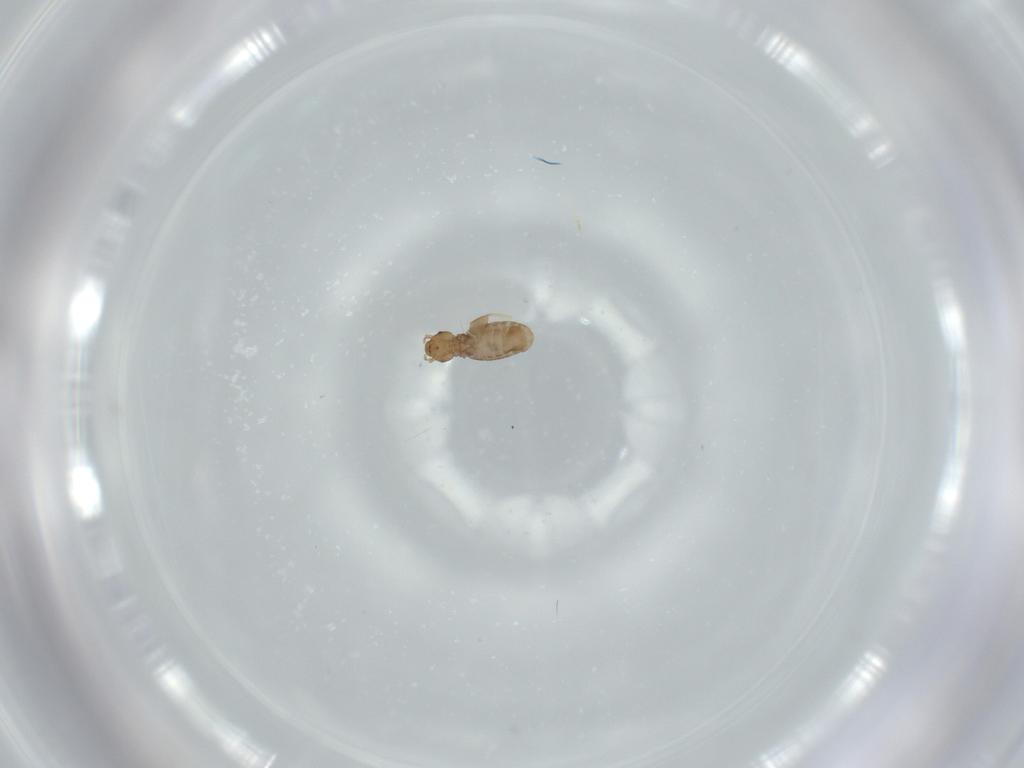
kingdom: Animalia
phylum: Arthropoda
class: Insecta
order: Psocodea
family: Liposcelididae
